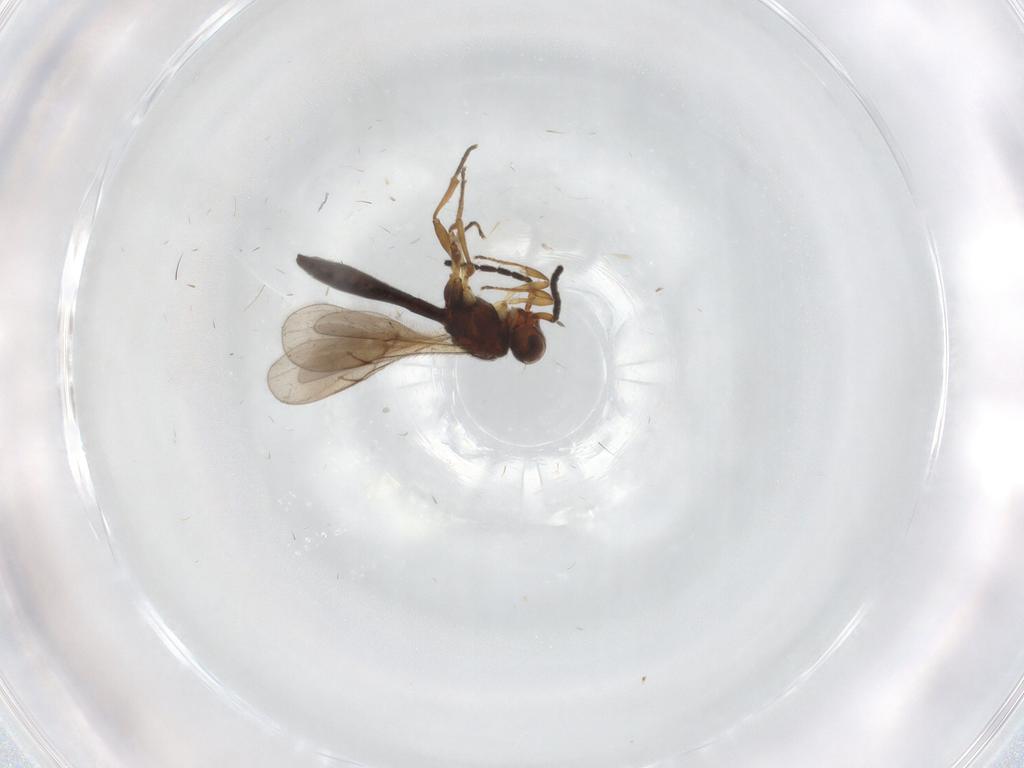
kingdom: Animalia
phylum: Arthropoda
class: Insecta
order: Hymenoptera
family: Scelionidae
